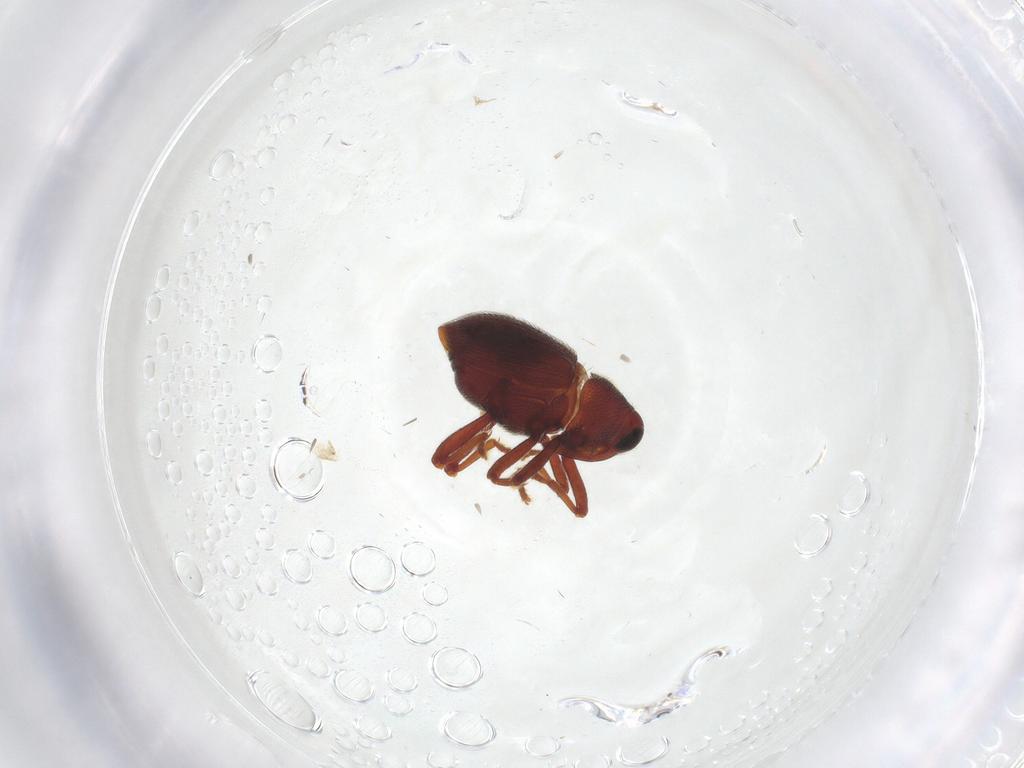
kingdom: Animalia
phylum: Arthropoda
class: Insecta
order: Coleoptera
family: Curculionidae
